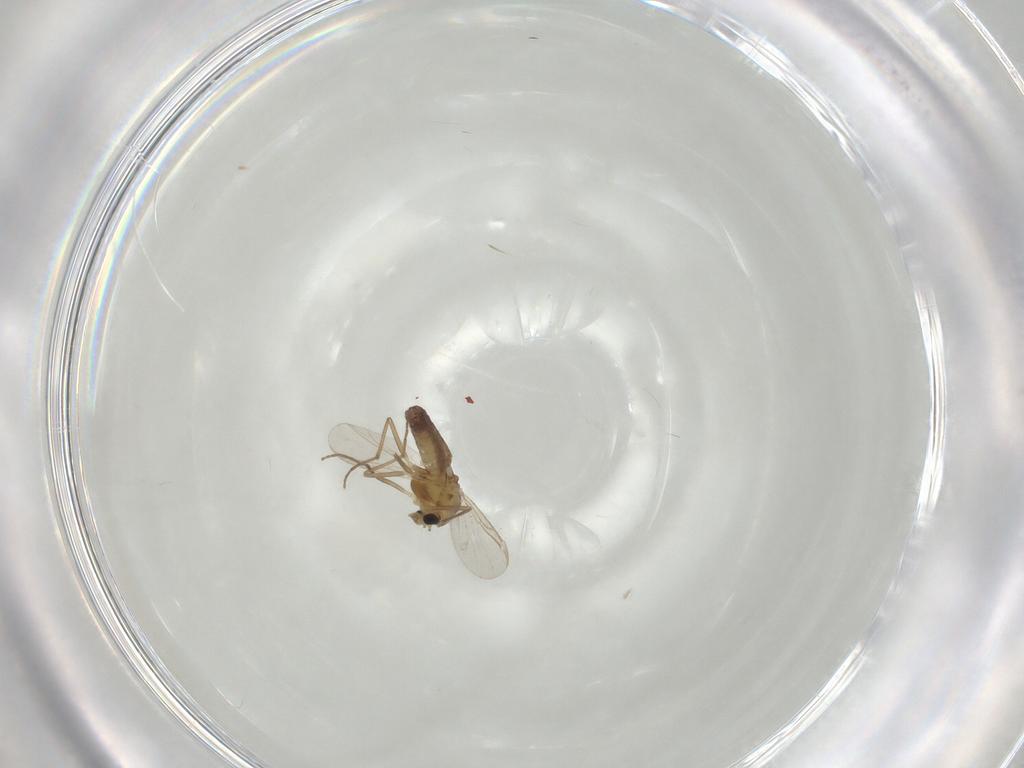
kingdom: Animalia
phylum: Arthropoda
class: Insecta
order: Diptera
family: Chironomidae
